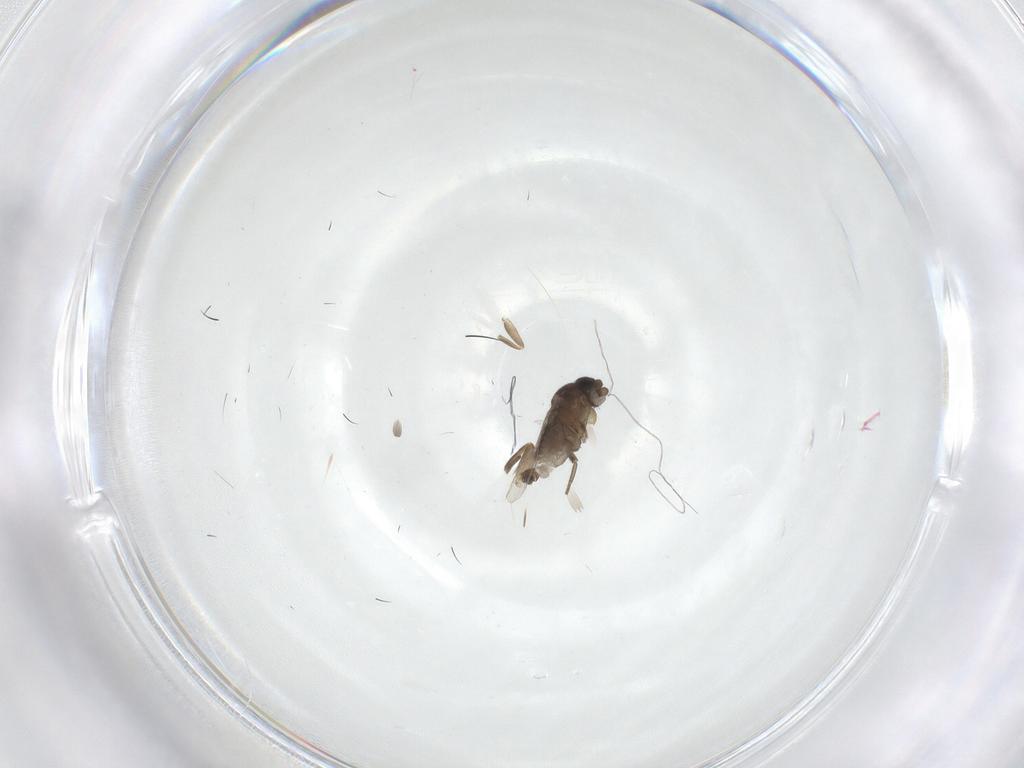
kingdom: Animalia
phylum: Arthropoda
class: Insecta
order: Diptera
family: Phoridae
